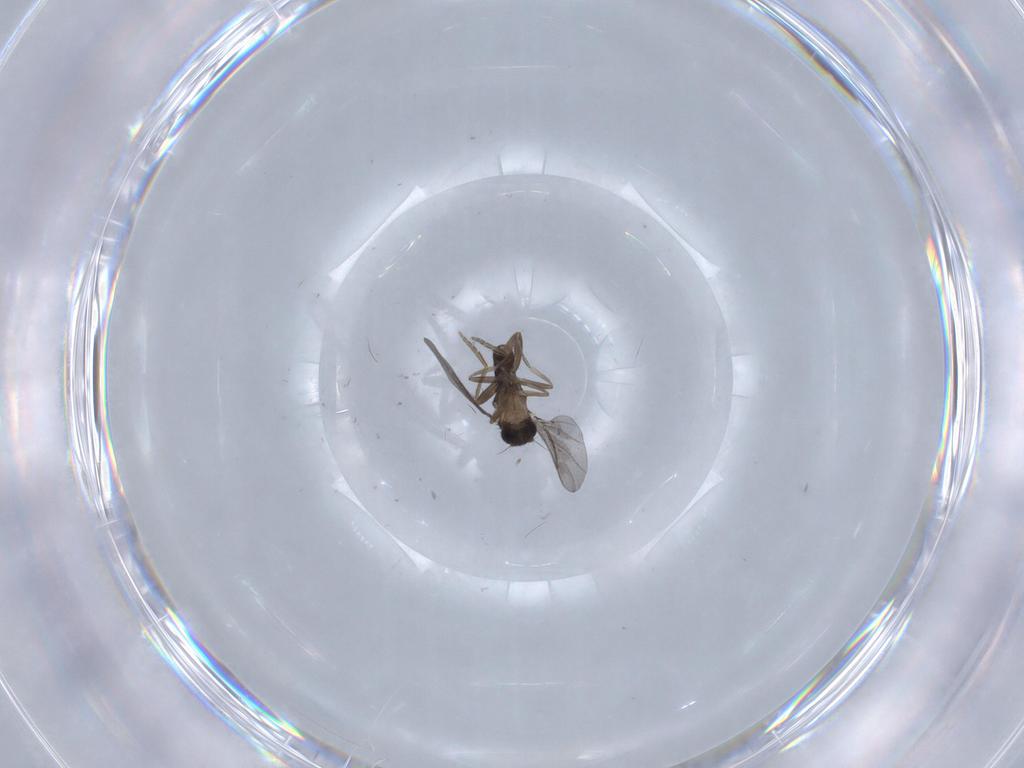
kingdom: Animalia
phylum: Arthropoda
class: Insecta
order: Diptera
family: Chironomidae
